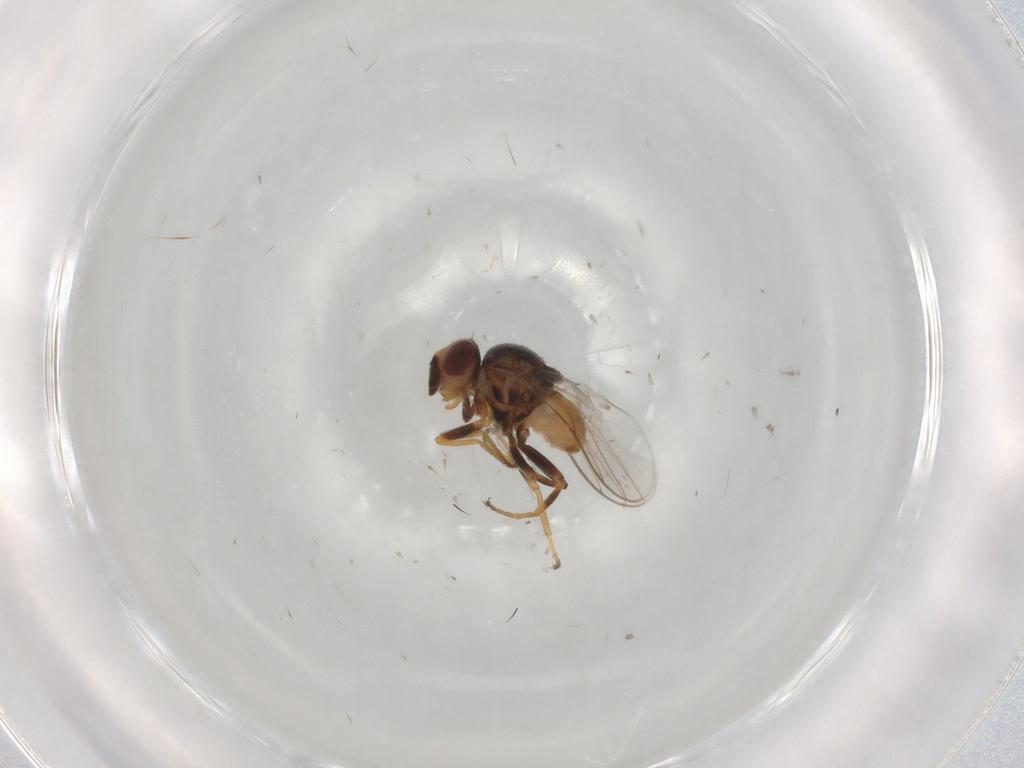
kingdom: Animalia
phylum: Arthropoda
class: Insecta
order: Diptera
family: Chloropidae
